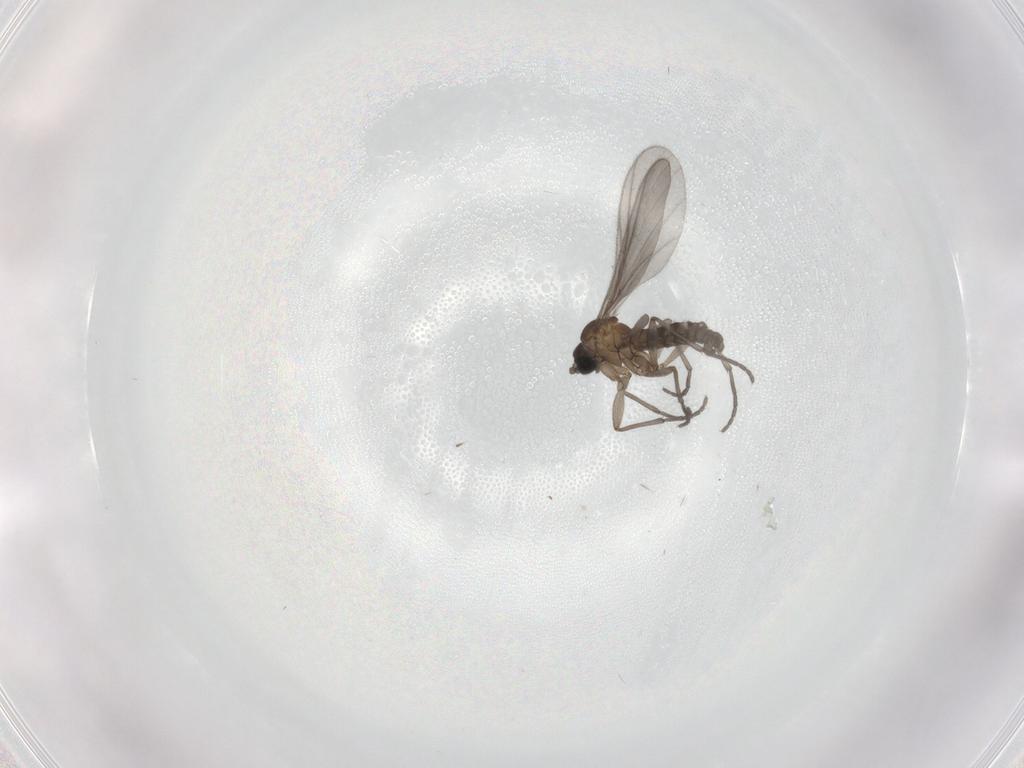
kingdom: Animalia
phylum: Arthropoda
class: Insecta
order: Diptera
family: Sciaridae
